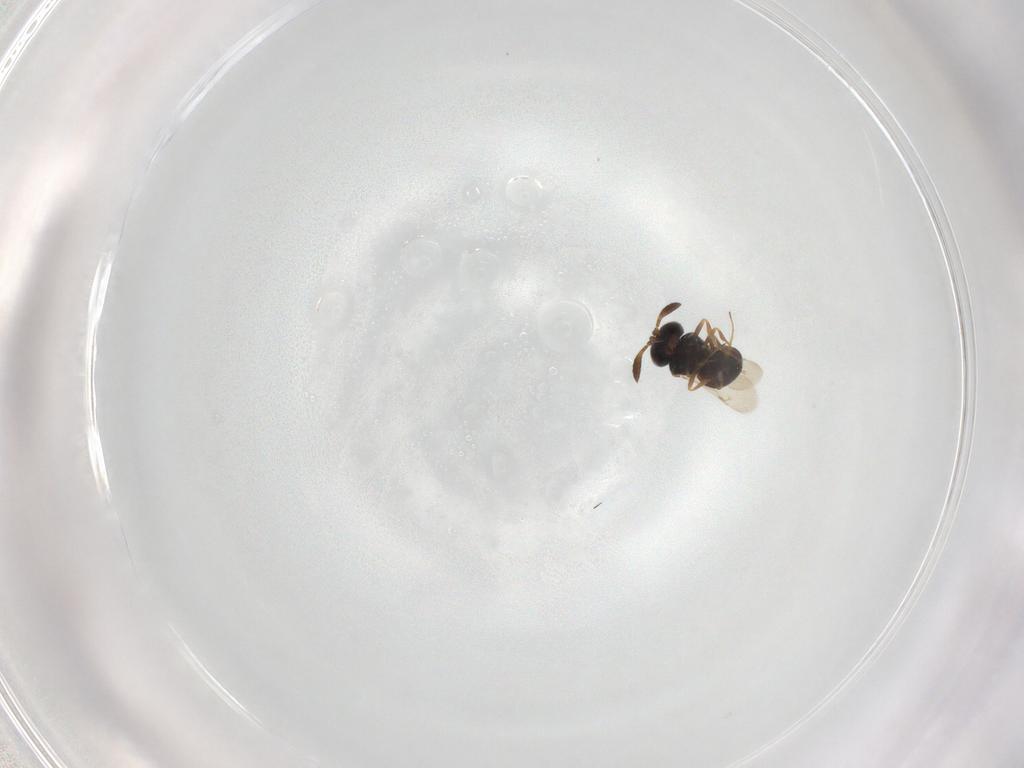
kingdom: Animalia
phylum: Arthropoda
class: Insecta
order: Hymenoptera
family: Scelionidae
